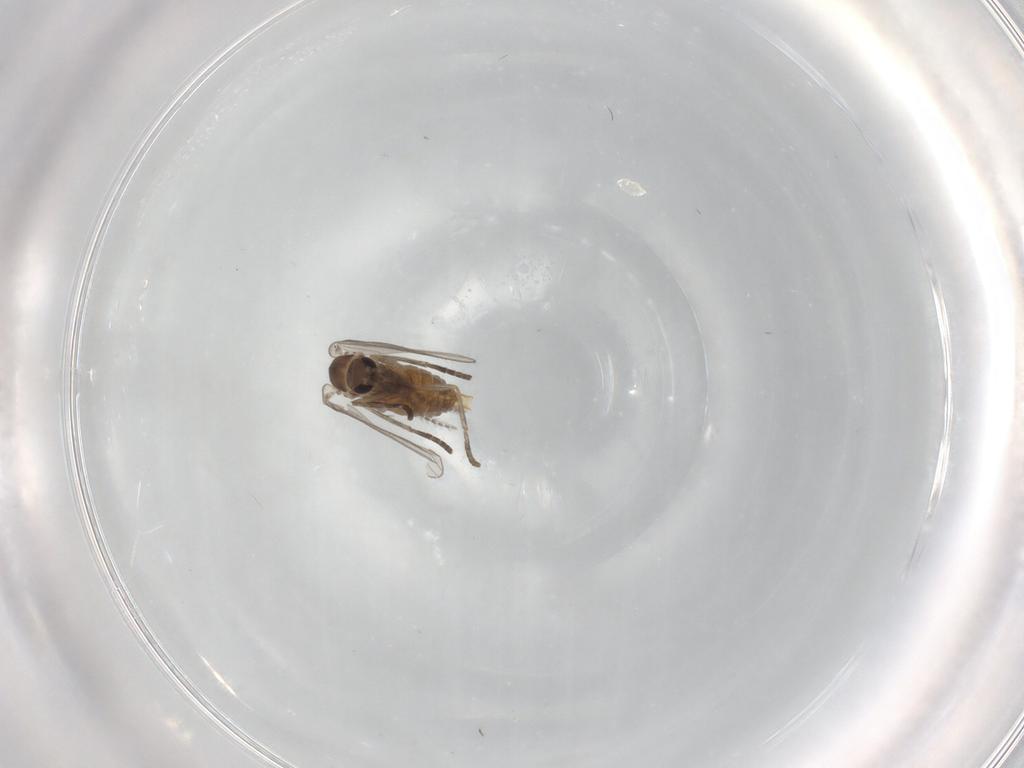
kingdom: Animalia
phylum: Arthropoda
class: Insecta
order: Diptera
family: Psychodidae
